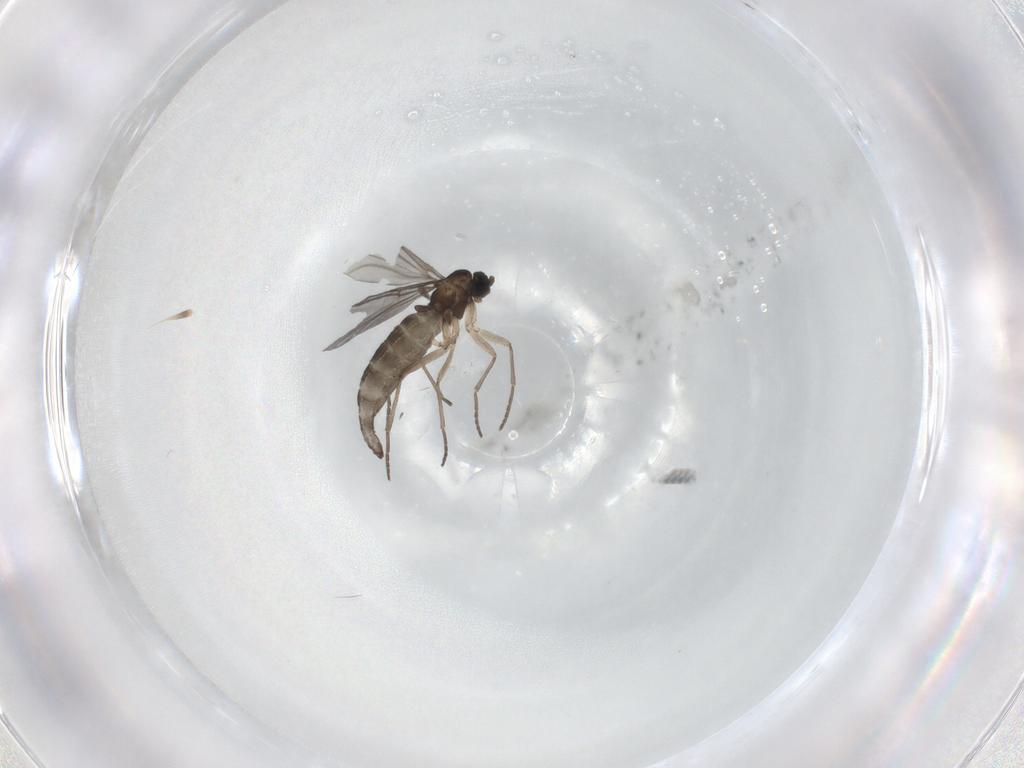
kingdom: Animalia
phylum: Arthropoda
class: Insecta
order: Diptera
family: Sciaridae
